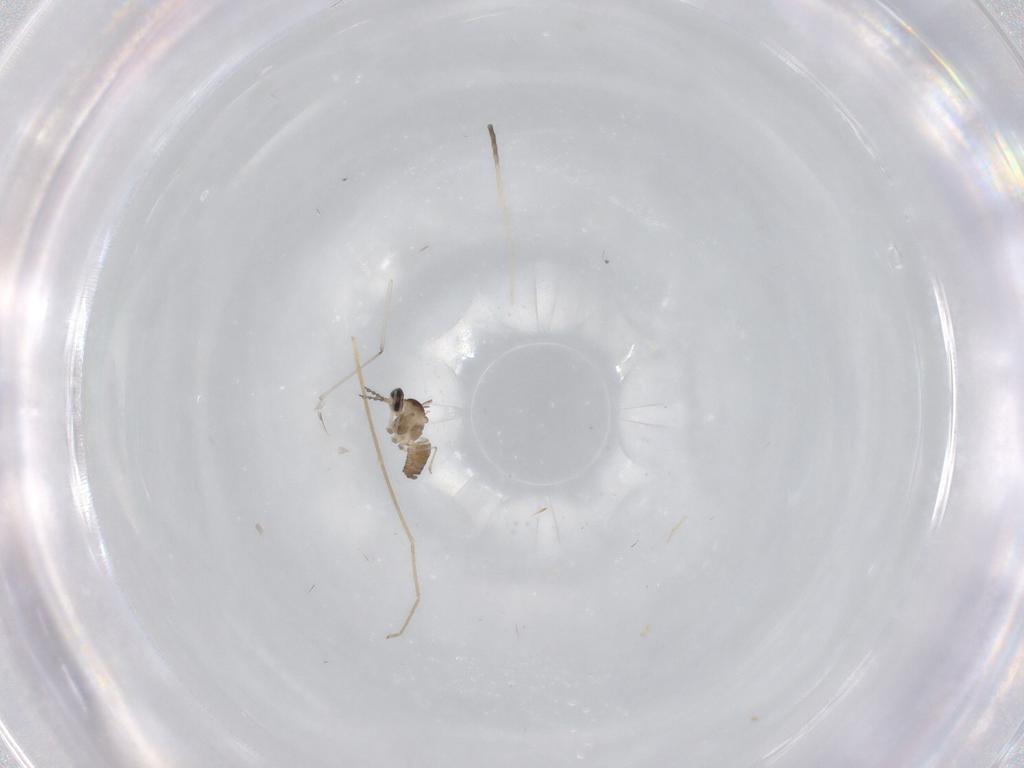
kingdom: Animalia
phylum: Arthropoda
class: Insecta
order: Diptera
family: Cecidomyiidae
